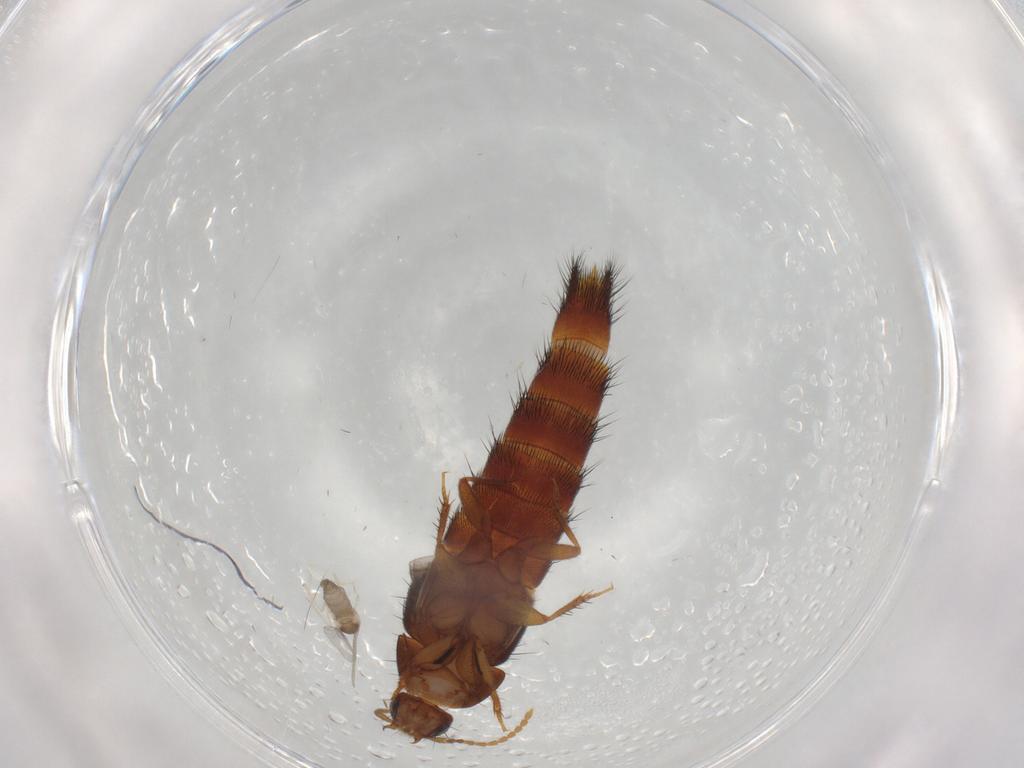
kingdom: Animalia
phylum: Arthropoda
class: Insecta
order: Diptera
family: Cecidomyiidae
